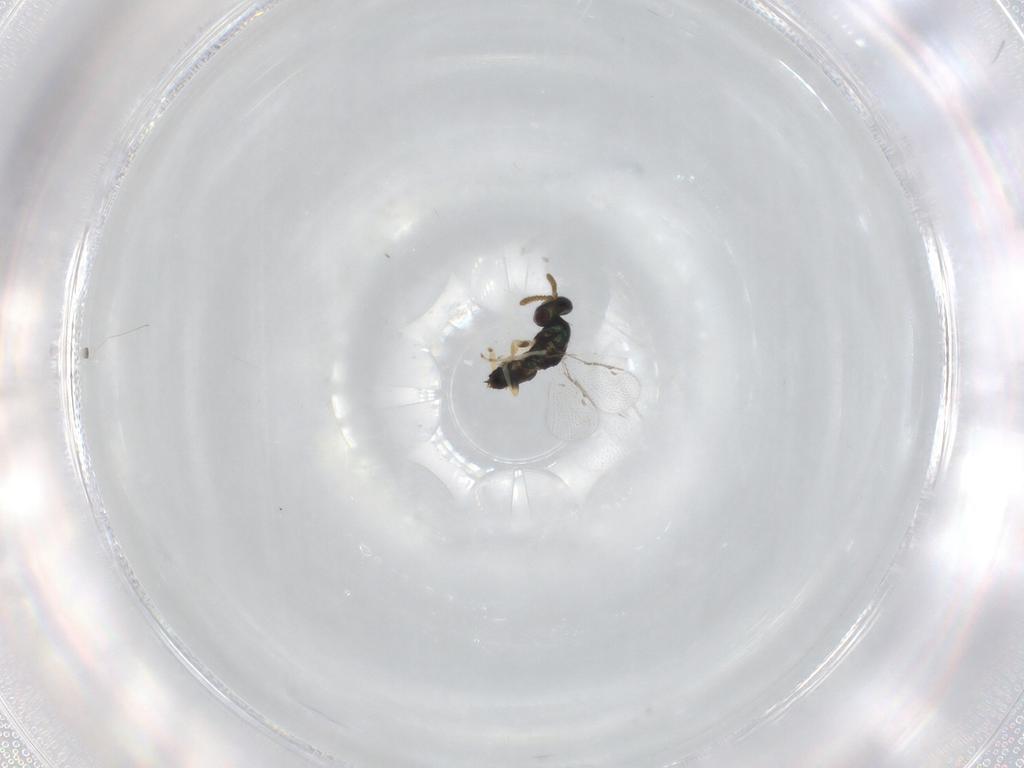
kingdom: Animalia
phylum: Arthropoda
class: Insecta
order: Hymenoptera
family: Pirenidae
